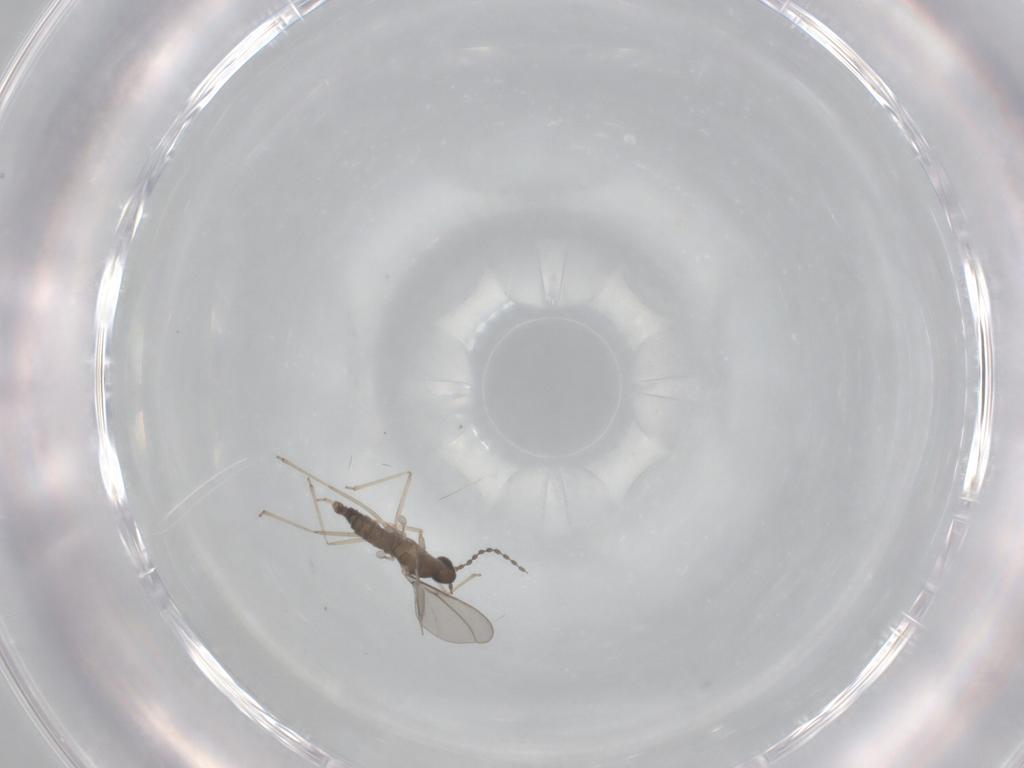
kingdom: Animalia
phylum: Arthropoda
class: Insecta
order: Diptera
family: Cecidomyiidae
